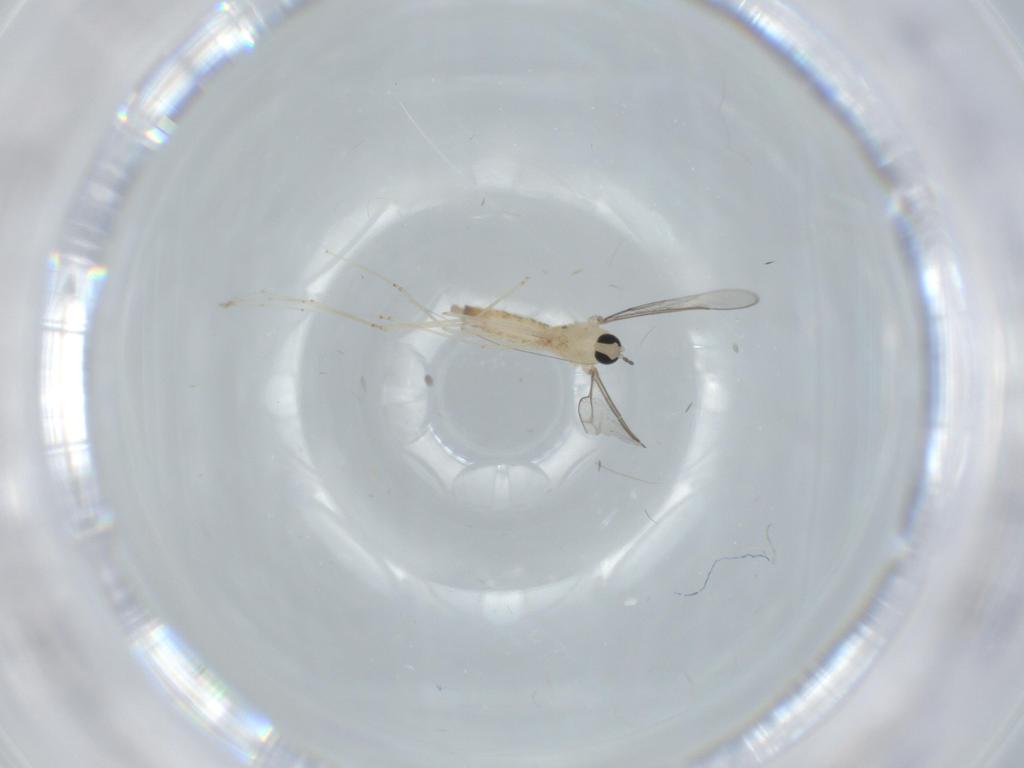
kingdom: Animalia
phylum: Arthropoda
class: Insecta
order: Diptera
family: Cecidomyiidae
